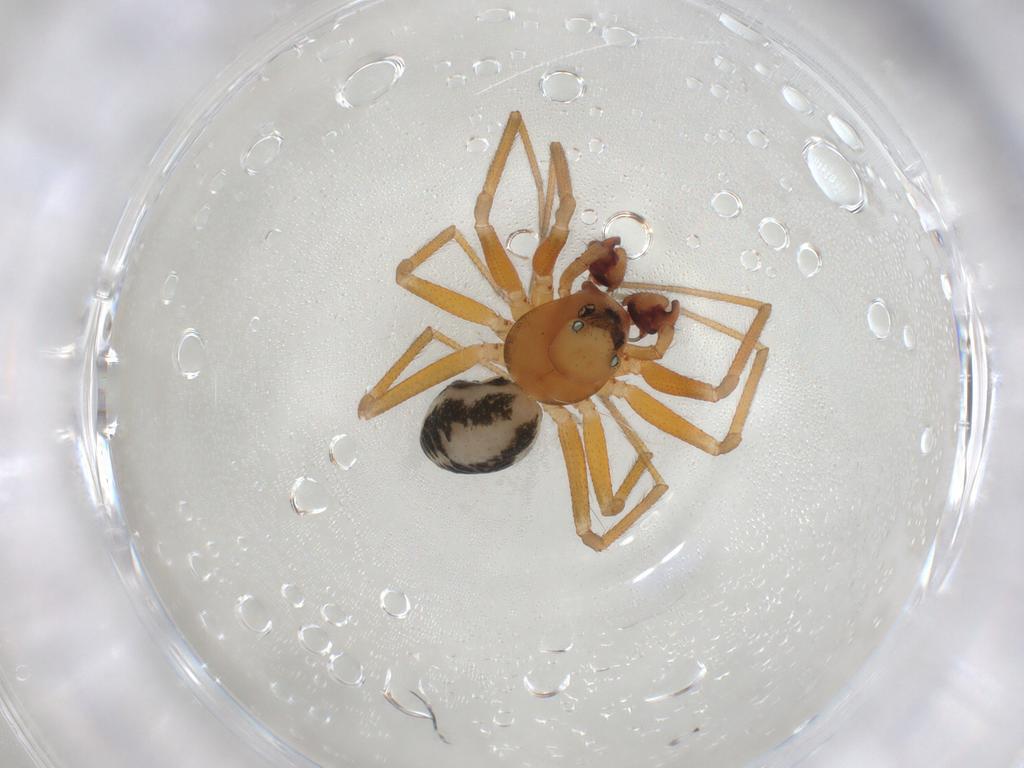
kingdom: Animalia
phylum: Arthropoda
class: Arachnida
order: Araneae
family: Linyphiidae
